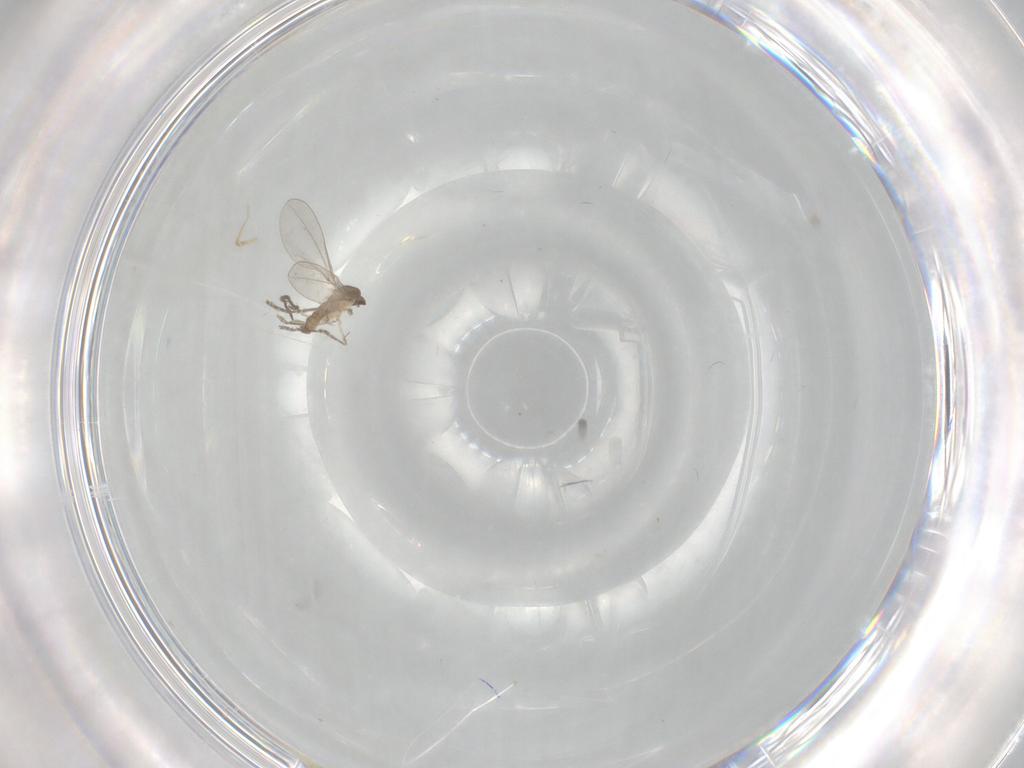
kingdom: Animalia
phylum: Arthropoda
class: Insecta
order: Diptera
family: Cecidomyiidae
